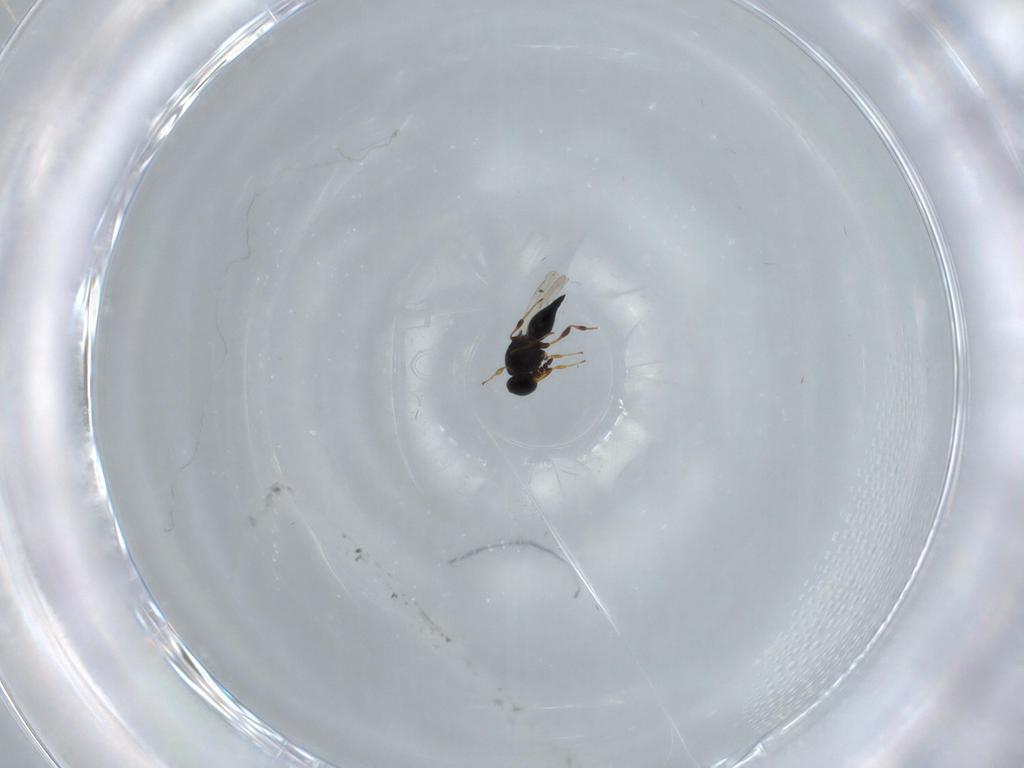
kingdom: Animalia
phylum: Arthropoda
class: Insecta
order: Hymenoptera
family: Platygastridae
